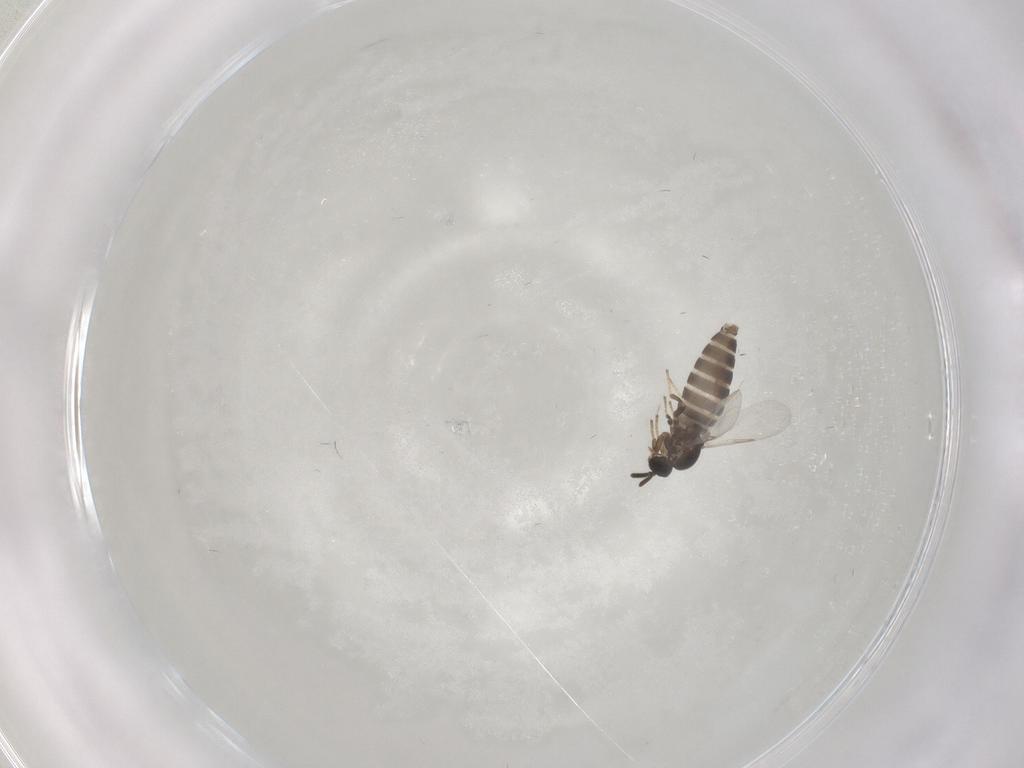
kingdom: Animalia
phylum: Arthropoda
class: Insecta
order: Diptera
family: Scatopsidae
